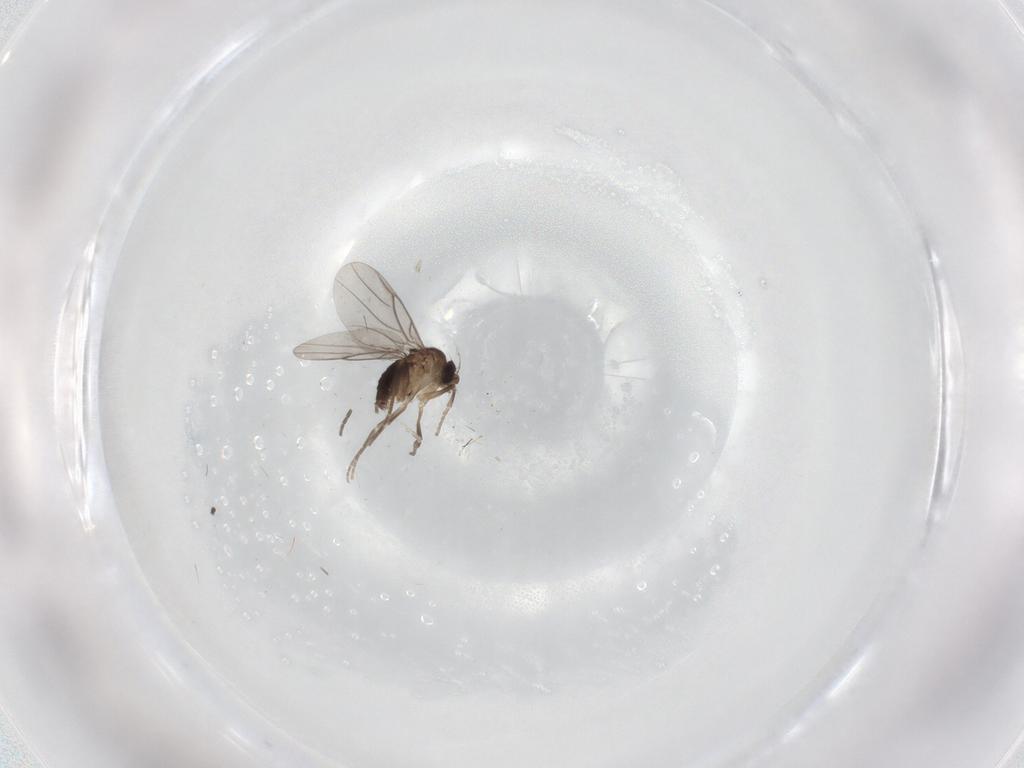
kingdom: Animalia
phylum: Arthropoda
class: Insecta
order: Diptera
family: Sciaridae
